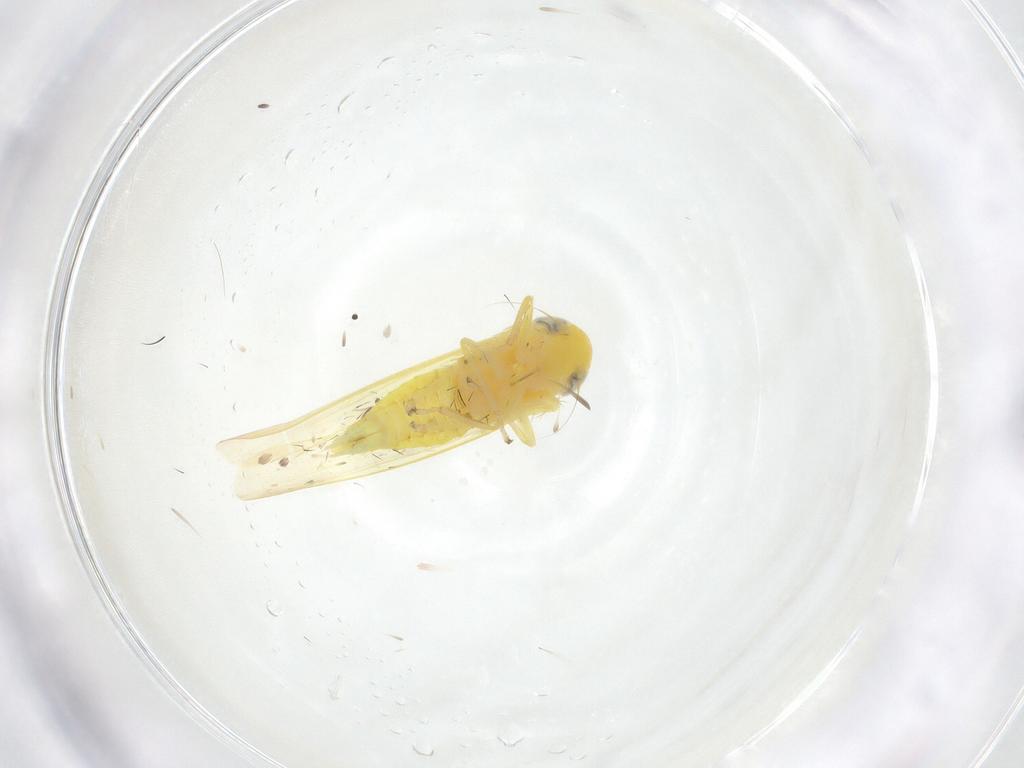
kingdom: Animalia
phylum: Arthropoda
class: Insecta
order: Hemiptera
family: Cicadellidae
